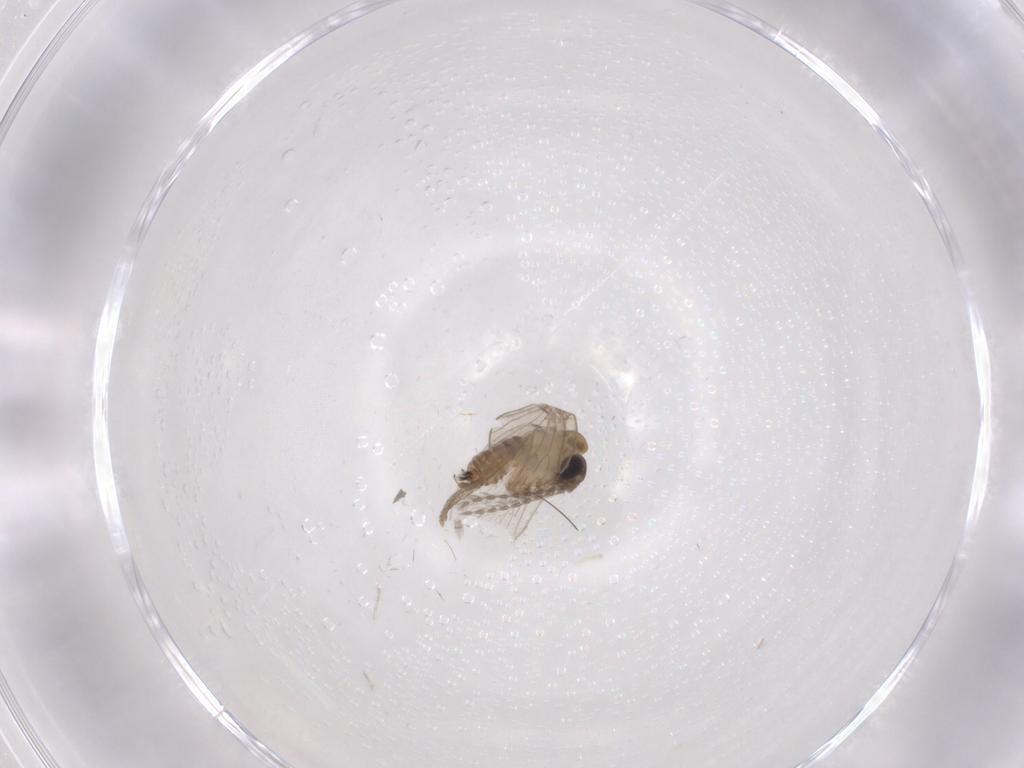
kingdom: Animalia
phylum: Arthropoda
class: Insecta
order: Diptera
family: Psychodidae
